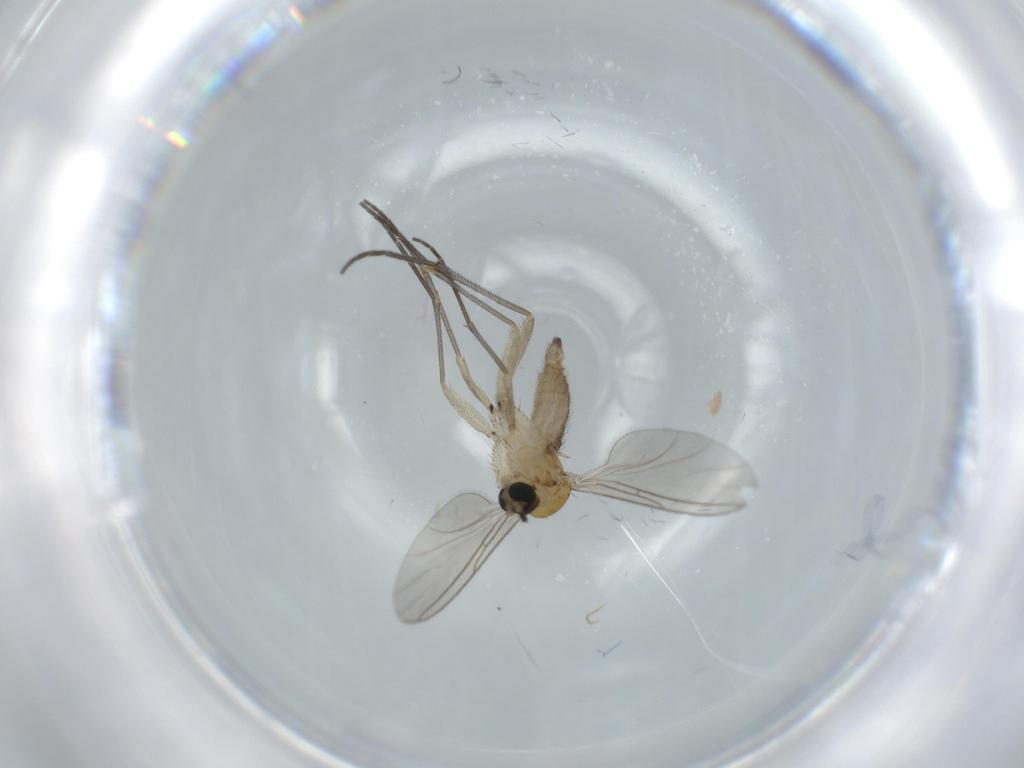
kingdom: Animalia
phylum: Arthropoda
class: Insecta
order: Diptera
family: Sciaridae
